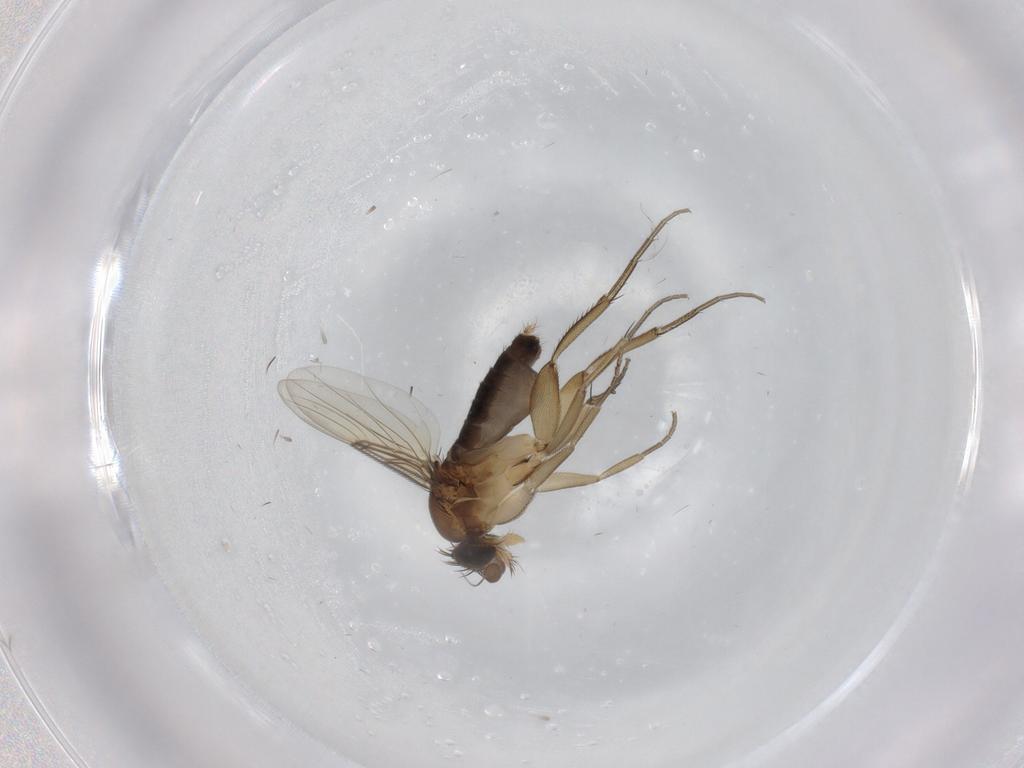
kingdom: Animalia
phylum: Arthropoda
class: Insecta
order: Diptera
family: Phoridae
